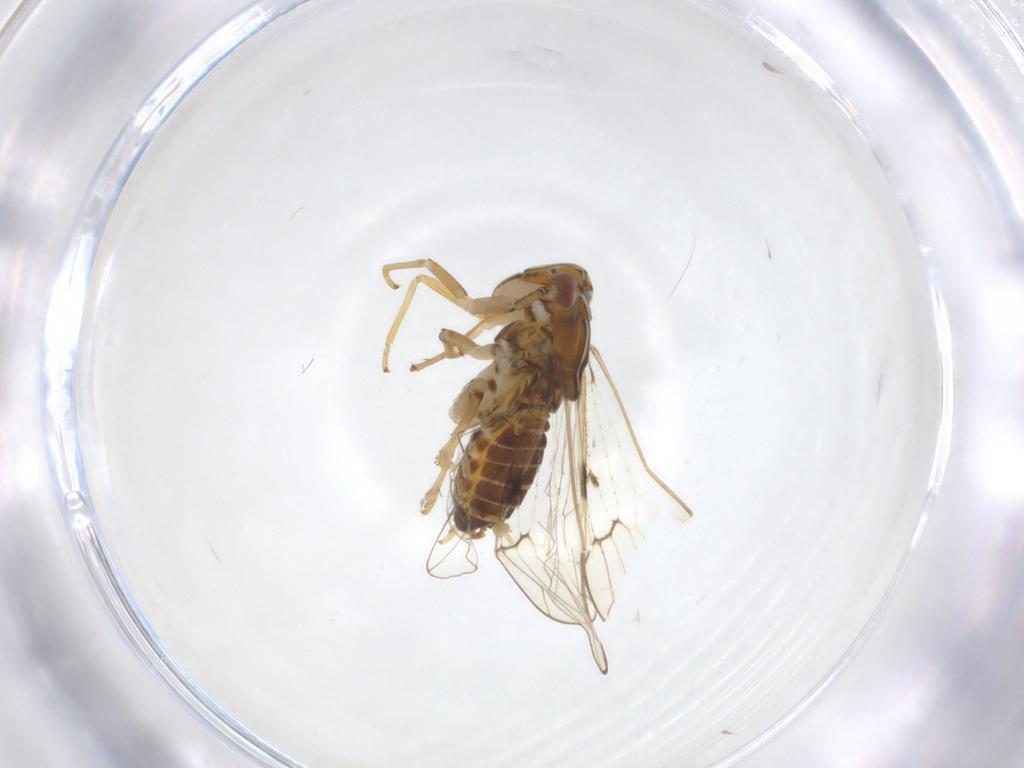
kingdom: Animalia
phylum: Arthropoda
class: Insecta
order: Hemiptera
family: Delphacidae
